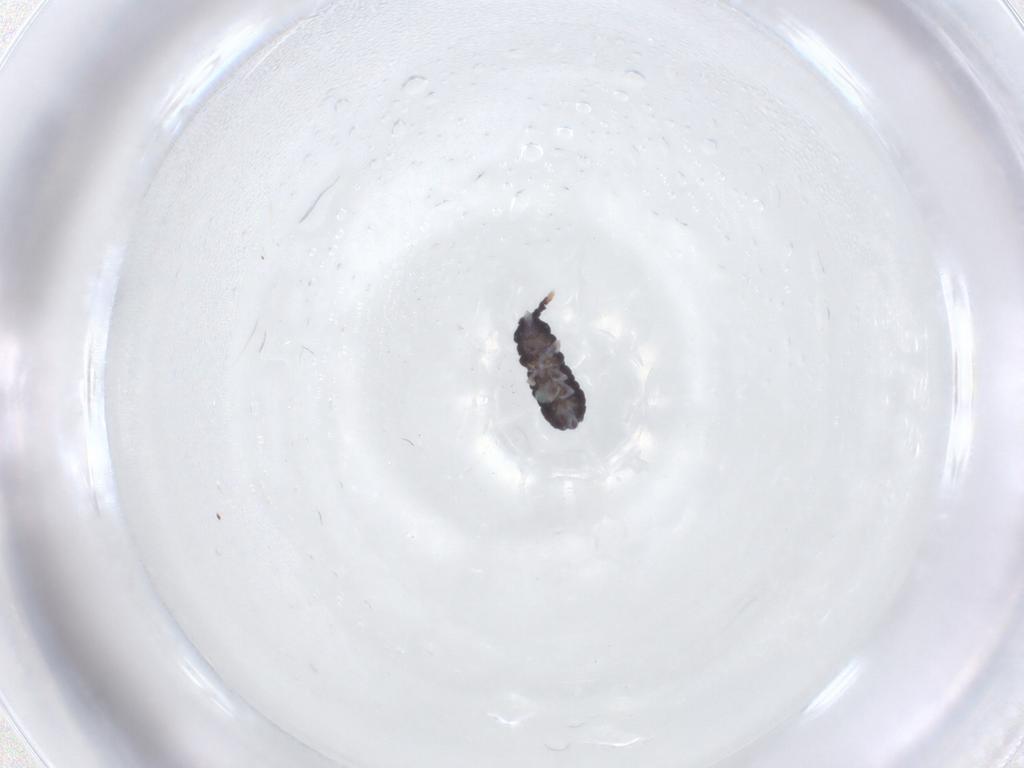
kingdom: Animalia
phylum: Arthropoda
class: Collembola
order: Poduromorpha
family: Neanuridae
